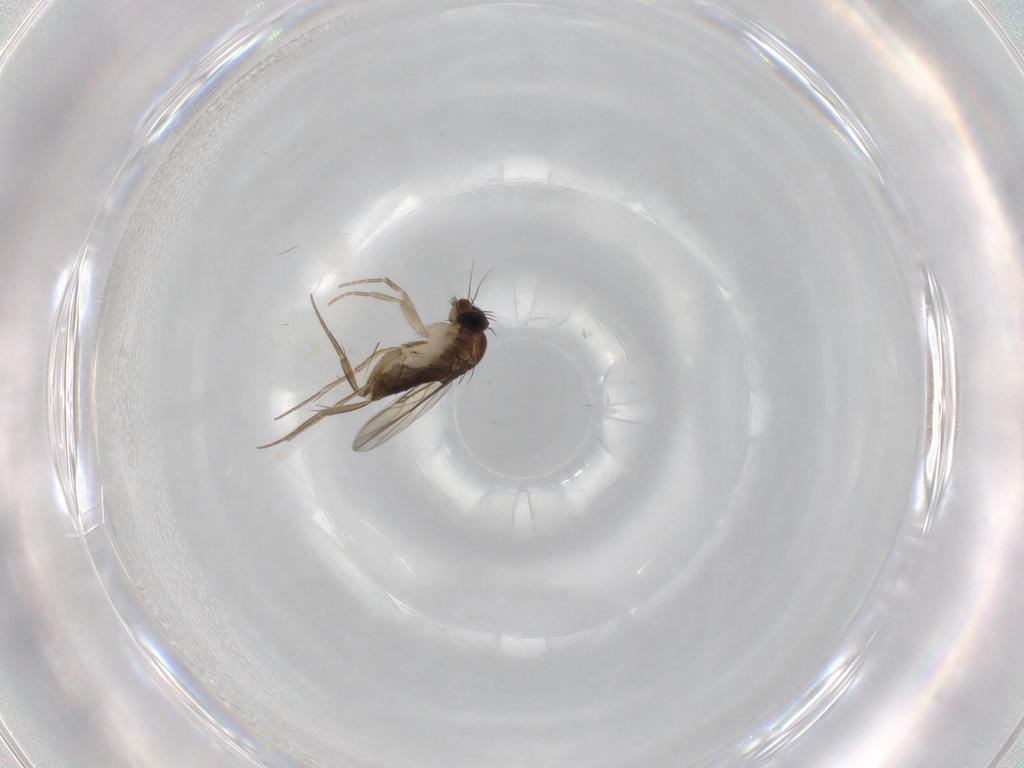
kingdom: Animalia
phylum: Arthropoda
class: Insecta
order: Diptera
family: Phoridae
